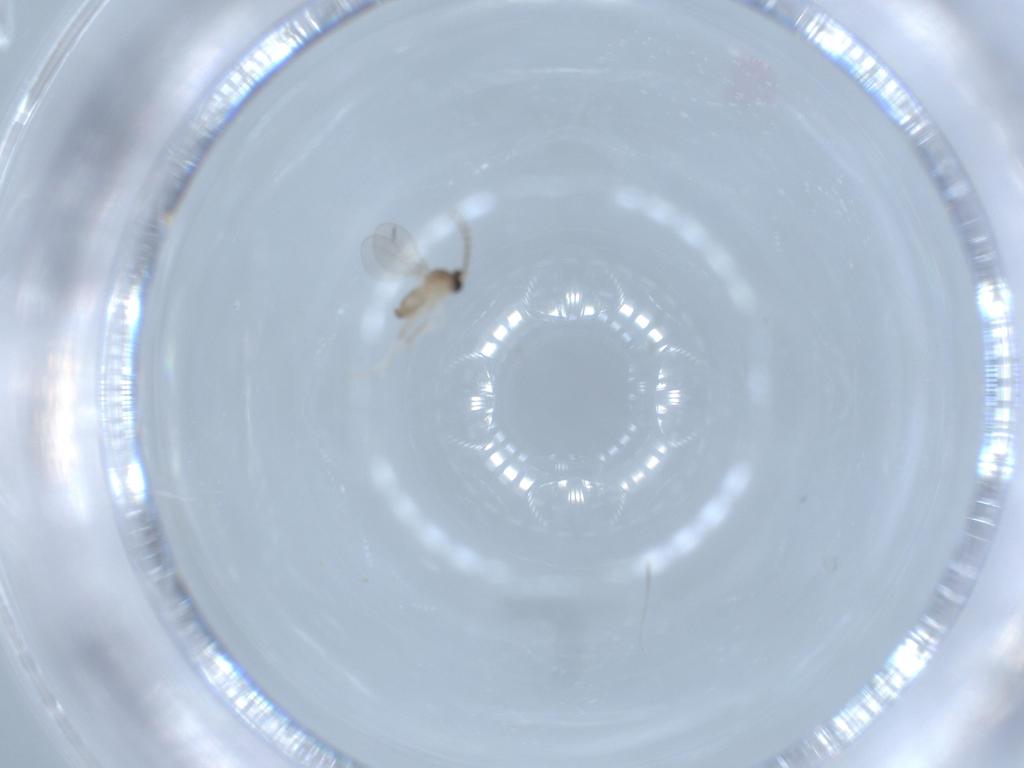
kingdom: Animalia
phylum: Arthropoda
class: Insecta
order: Diptera
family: Cecidomyiidae
